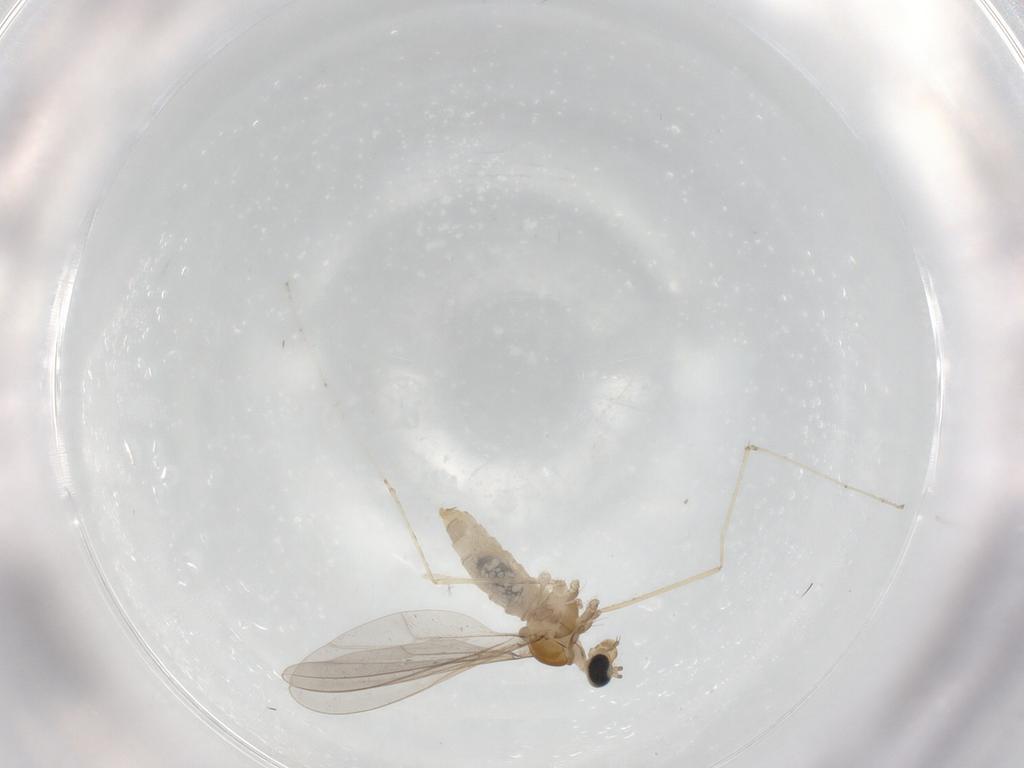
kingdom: Animalia
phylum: Arthropoda
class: Insecta
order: Diptera
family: Cecidomyiidae
